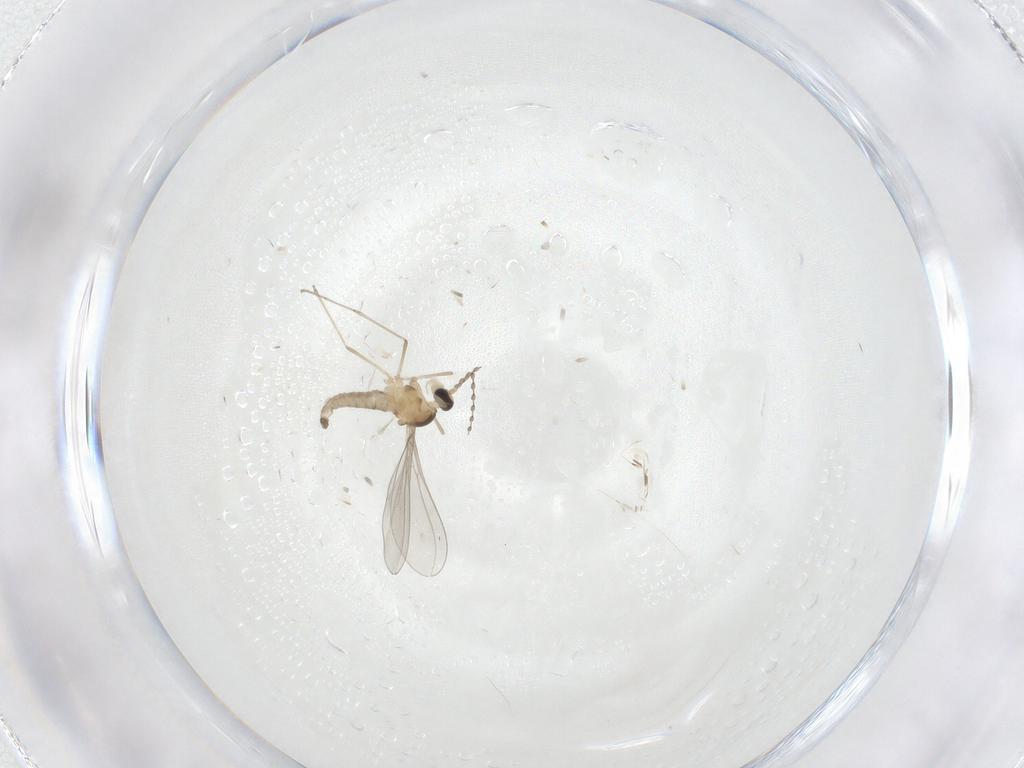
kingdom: Animalia
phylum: Arthropoda
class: Insecta
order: Diptera
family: Cecidomyiidae
